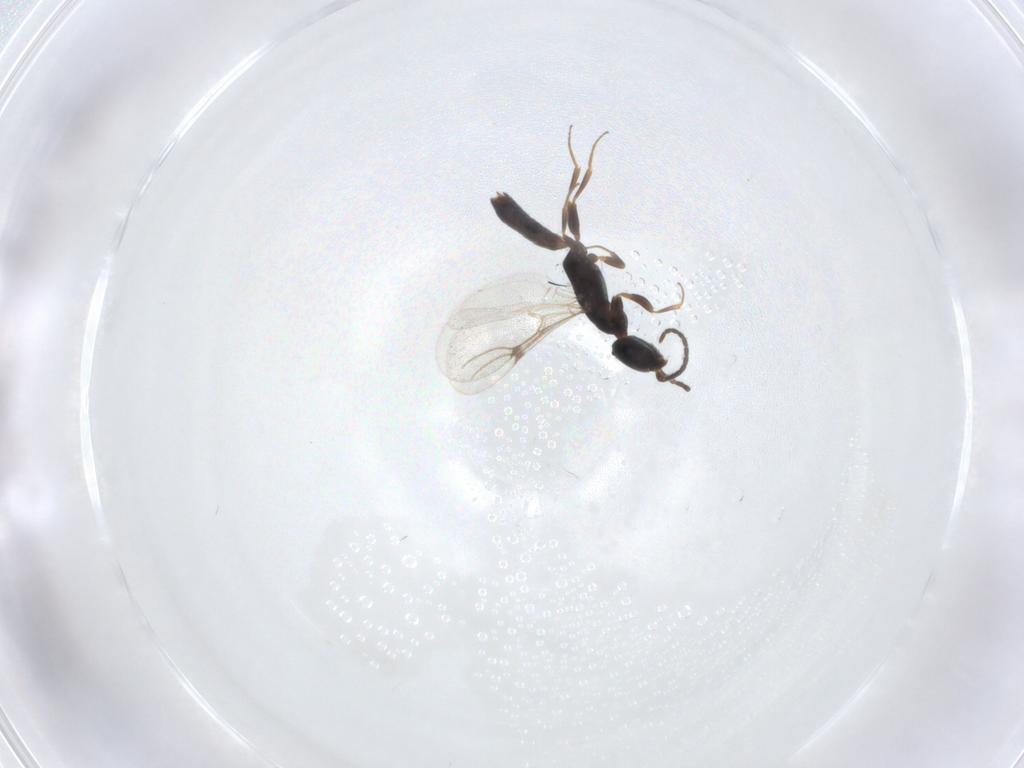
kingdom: Animalia
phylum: Arthropoda
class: Insecta
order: Hymenoptera
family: Bethylidae
